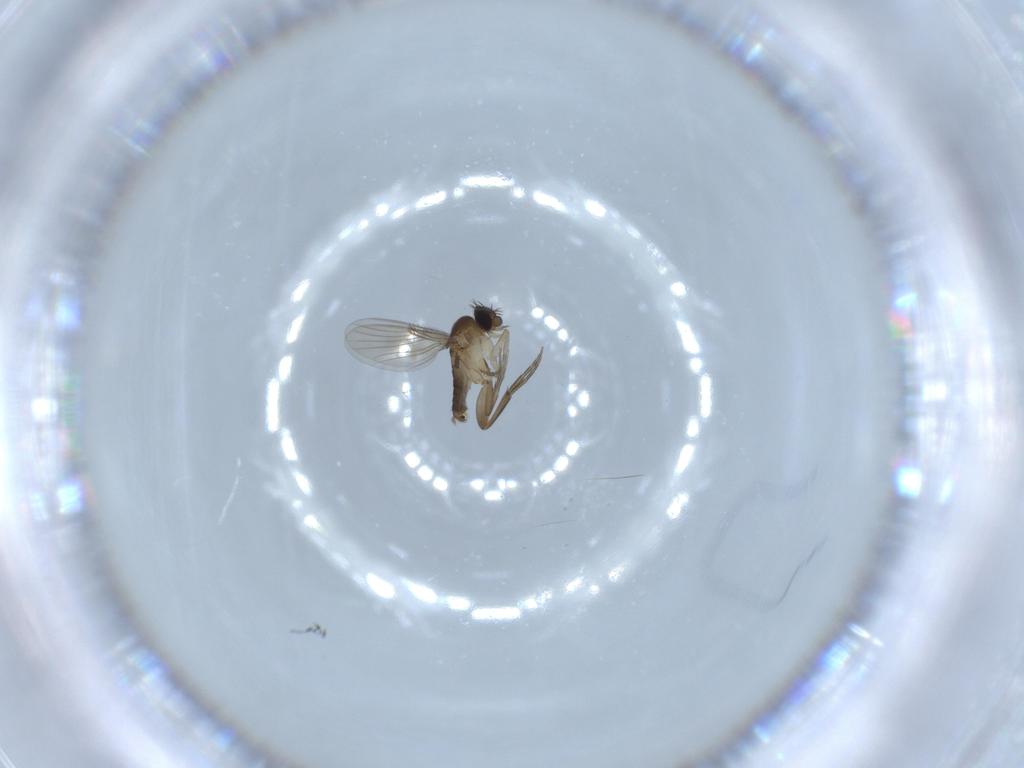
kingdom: Animalia
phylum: Arthropoda
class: Insecta
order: Diptera
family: Phoridae
